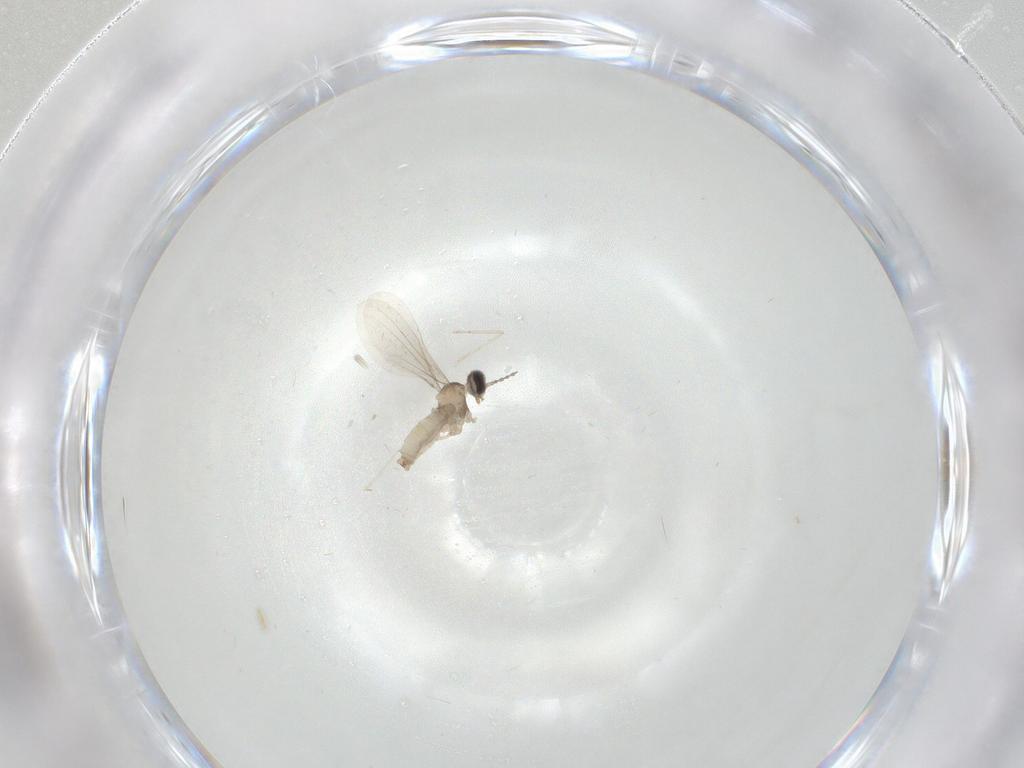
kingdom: Animalia
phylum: Arthropoda
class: Insecta
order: Diptera
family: Cecidomyiidae
